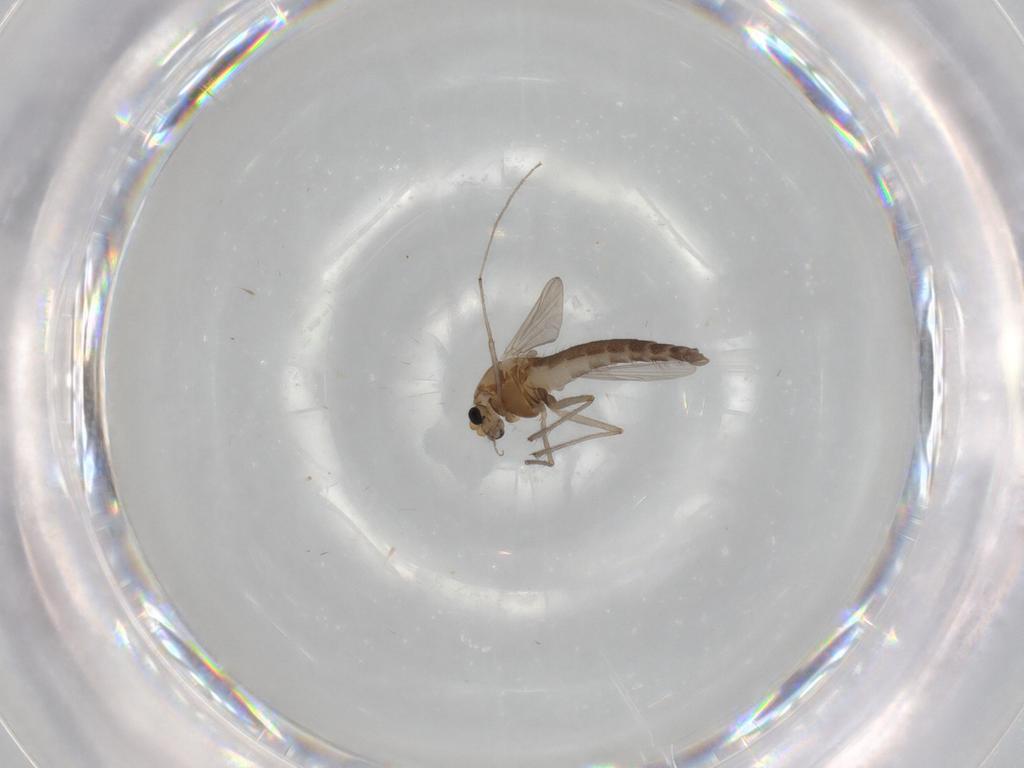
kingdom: Animalia
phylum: Arthropoda
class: Insecta
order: Diptera
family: Chironomidae
